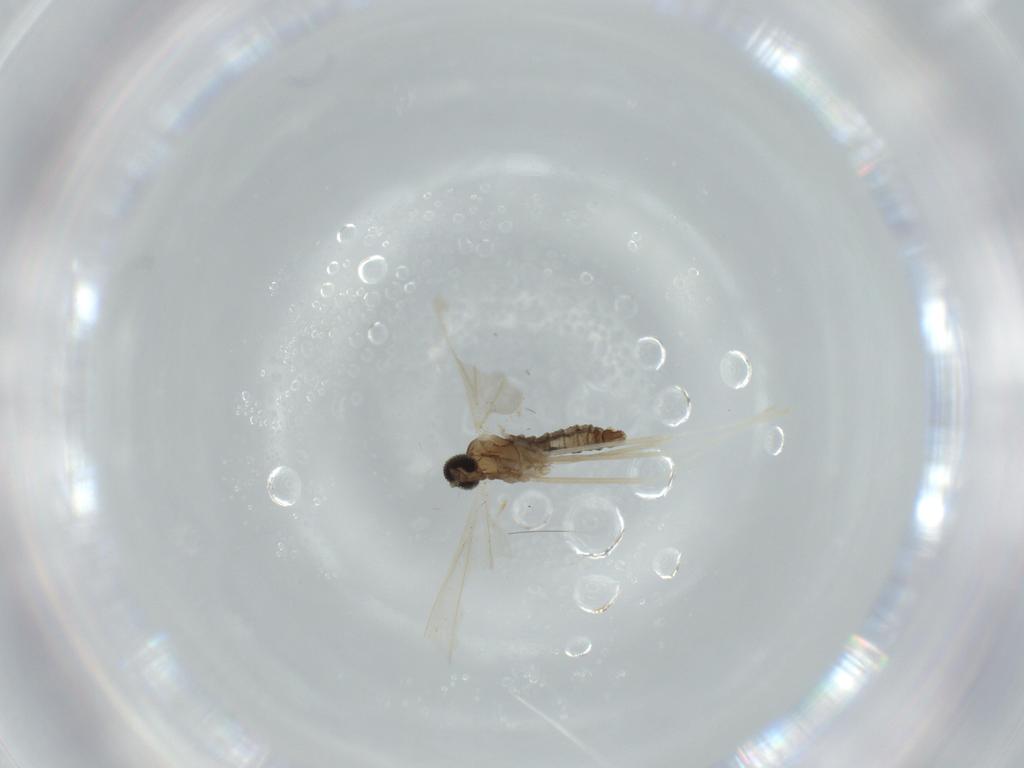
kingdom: Animalia
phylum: Arthropoda
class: Insecta
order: Diptera
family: Cecidomyiidae
